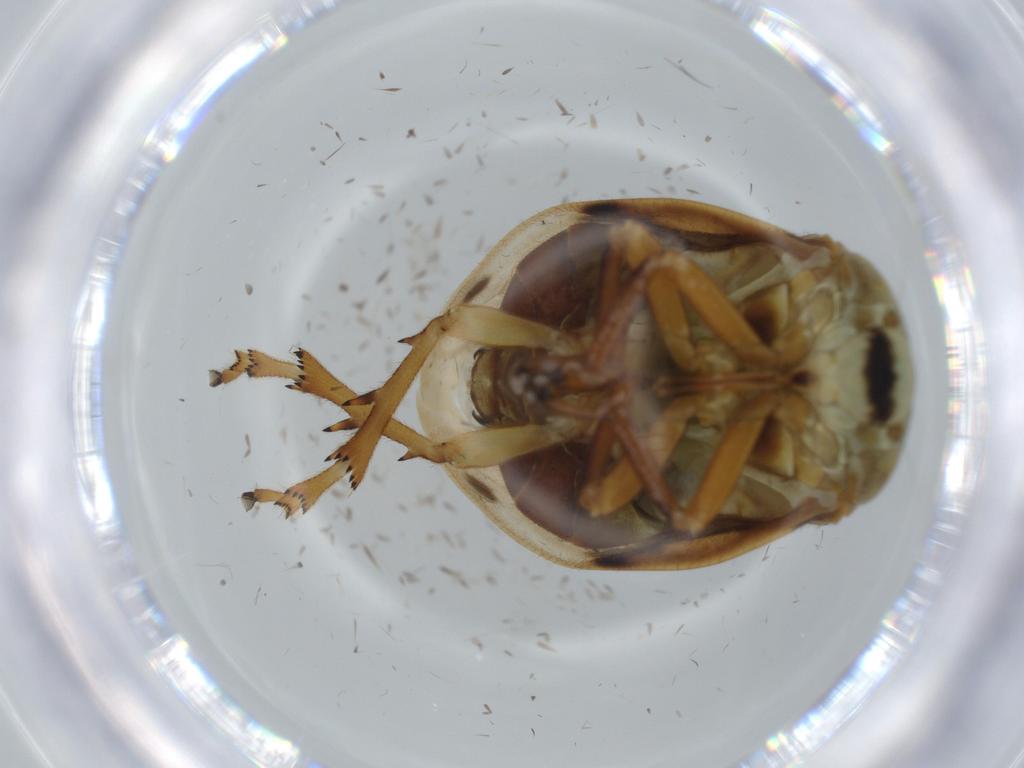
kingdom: Animalia
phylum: Arthropoda
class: Insecta
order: Hemiptera
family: Clastopteridae
